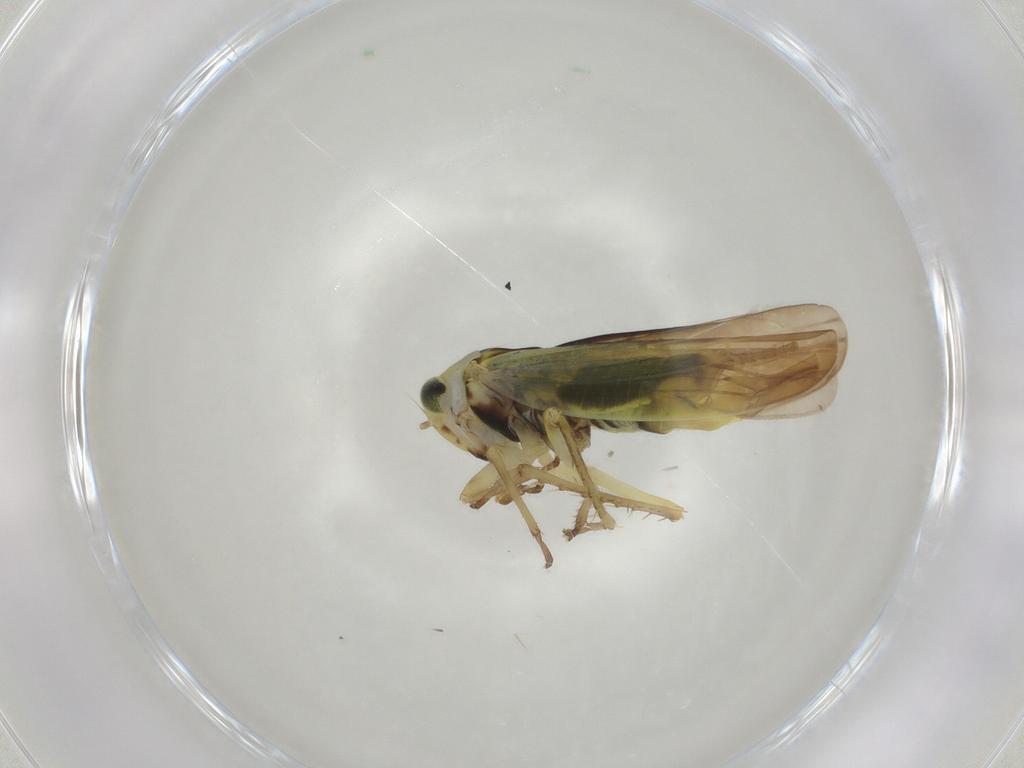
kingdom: Animalia
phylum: Arthropoda
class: Insecta
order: Hemiptera
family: Cicadellidae
